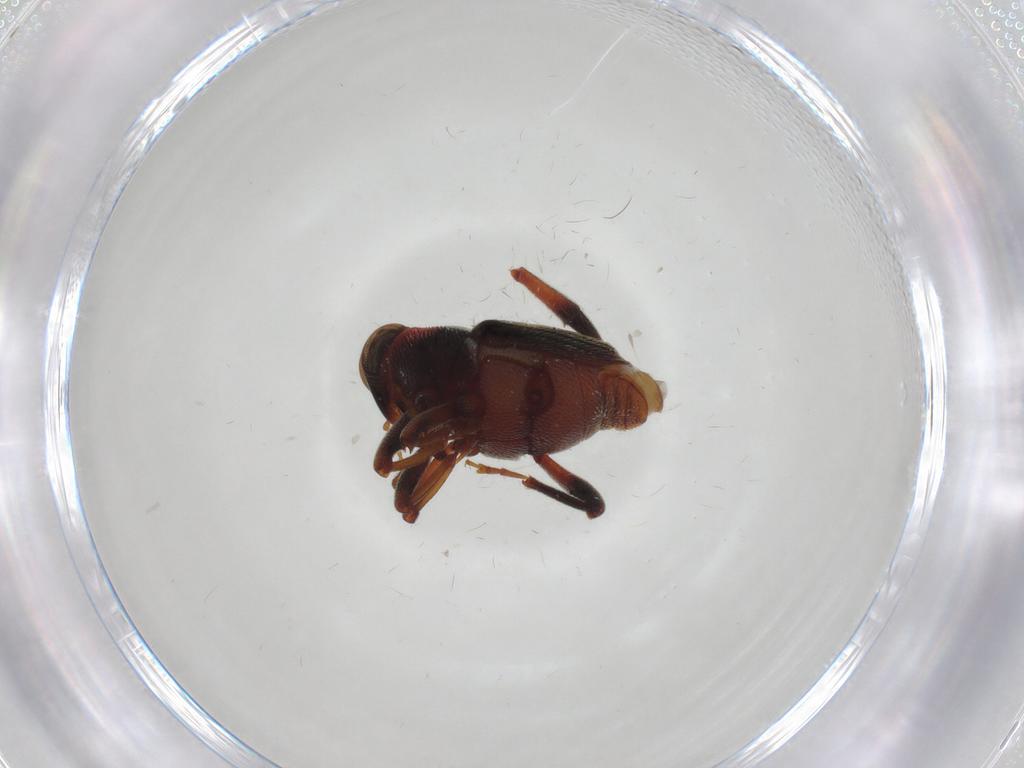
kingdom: Animalia
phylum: Arthropoda
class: Insecta
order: Coleoptera
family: Curculionidae
